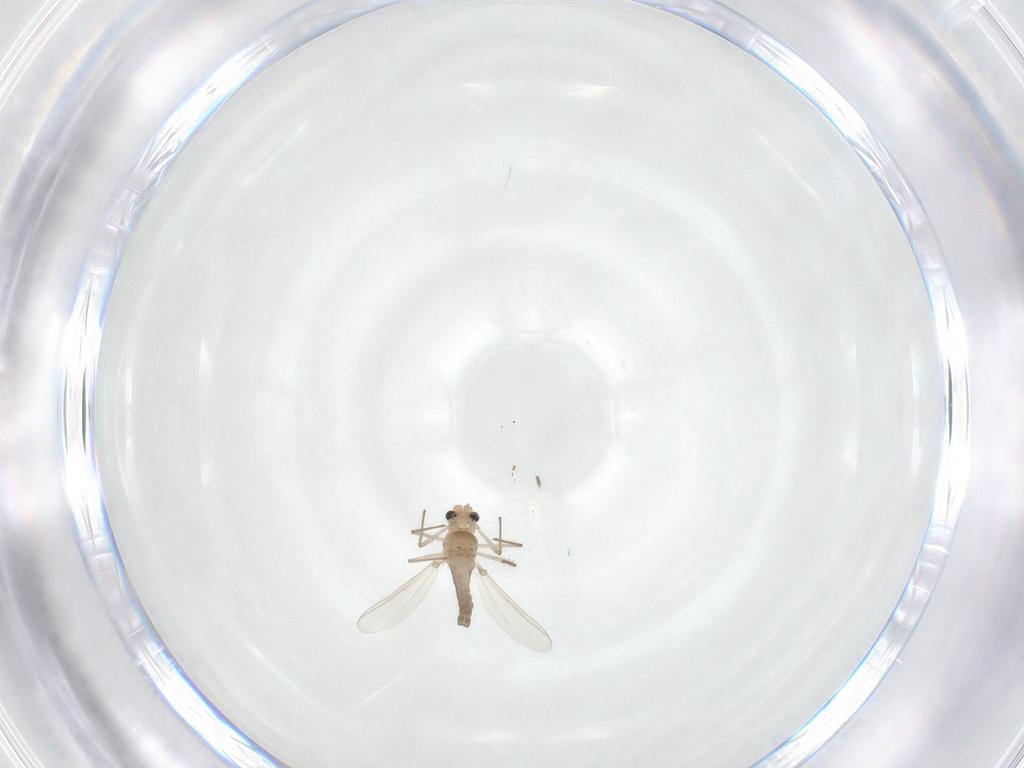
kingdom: Animalia
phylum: Arthropoda
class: Insecta
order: Diptera
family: Chironomidae
